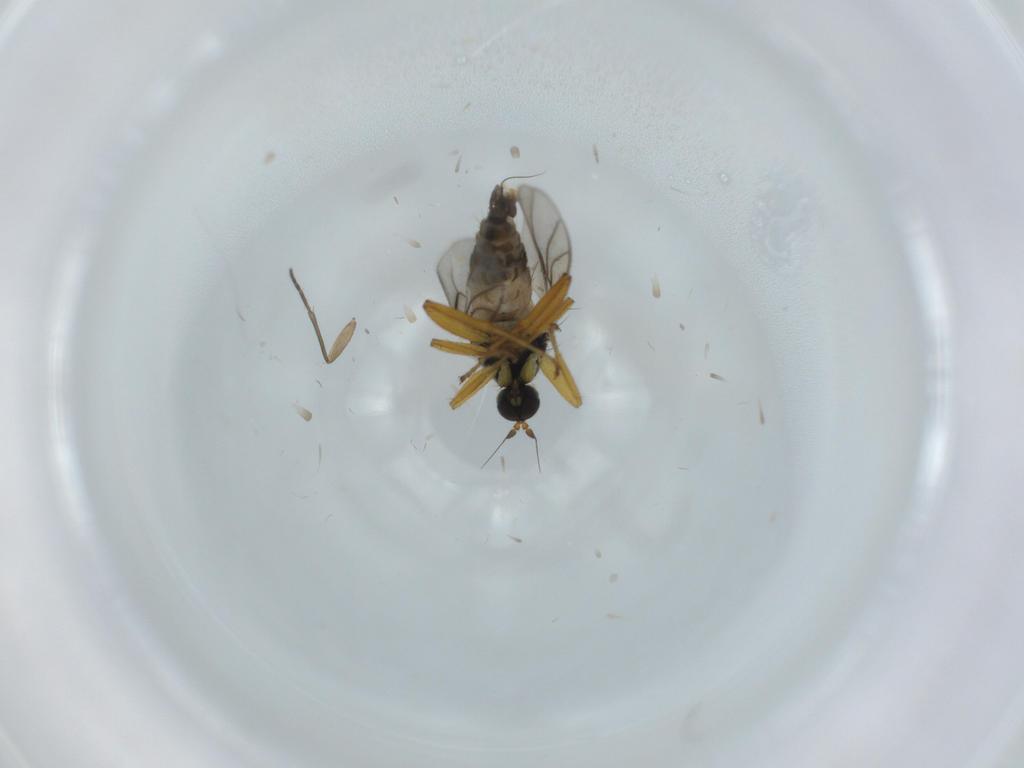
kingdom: Animalia
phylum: Arthropoda
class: Insecta
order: Diptera
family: Hybotidae
